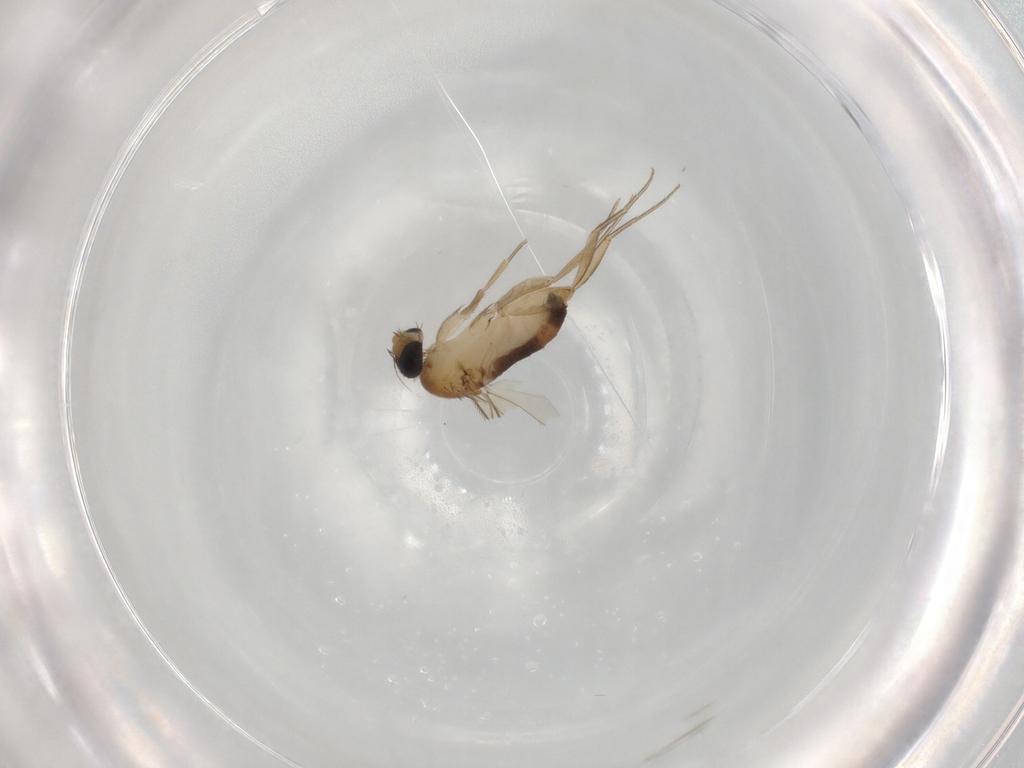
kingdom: Animalia
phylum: Arthropoda
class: Insecta
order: Diptera
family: Phoridae
